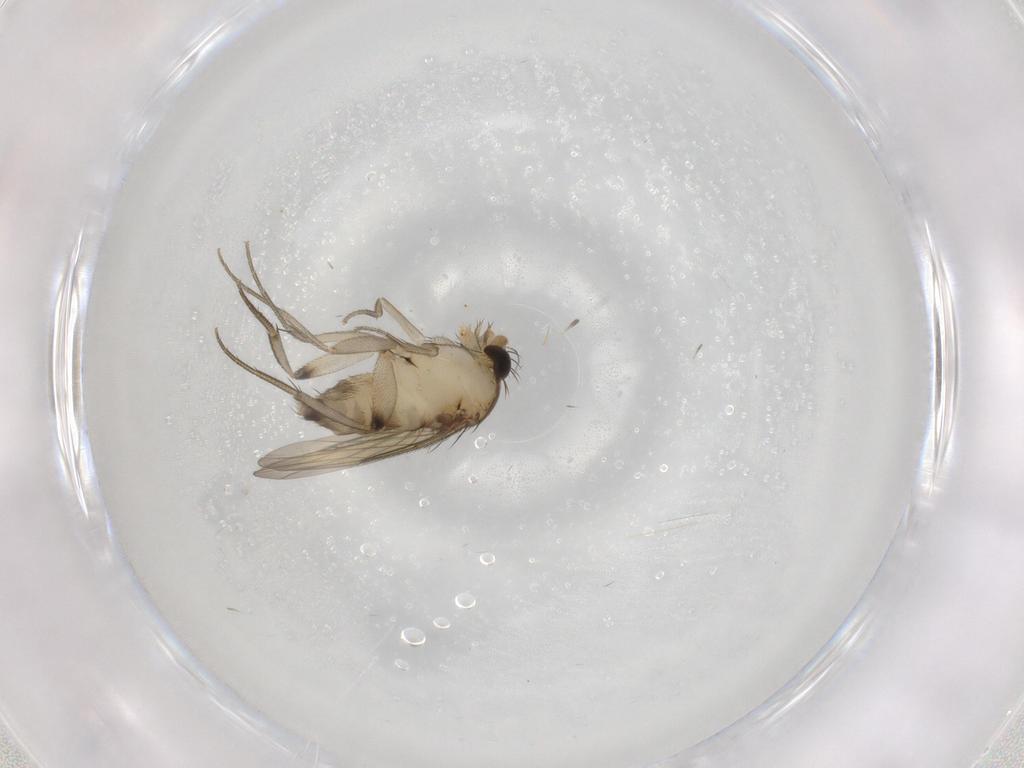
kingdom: Animalia
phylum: Arthropoda
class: Insecta
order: Diptera
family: Phoridae
